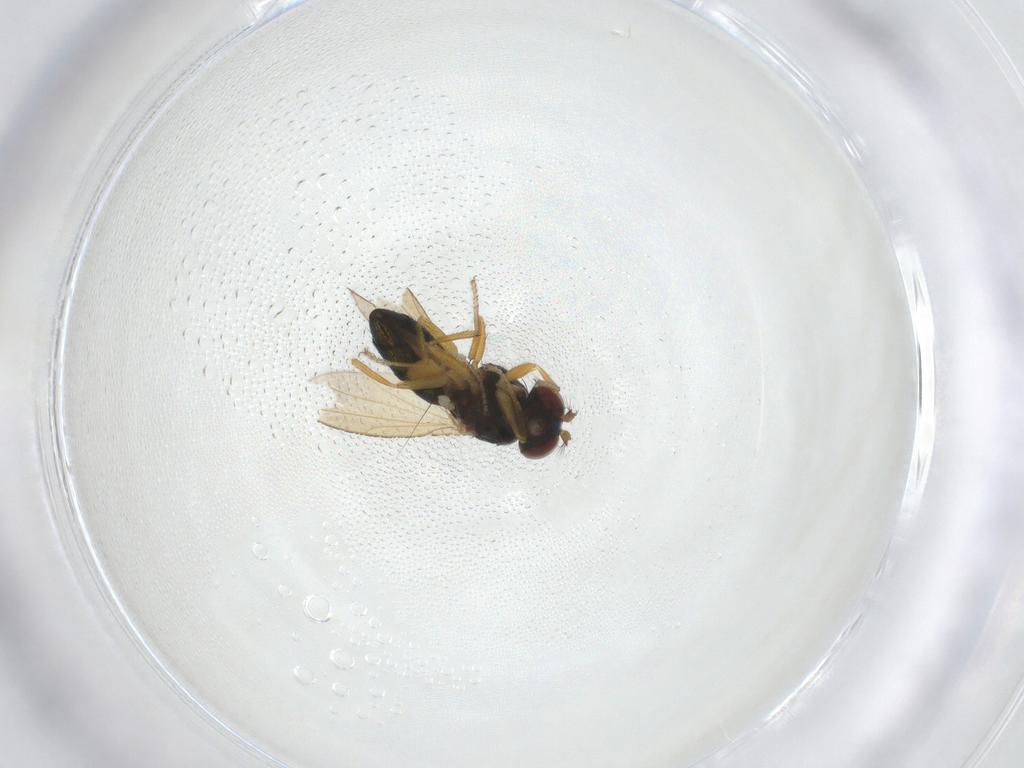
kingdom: Animalia
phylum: Arthropoda
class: Insecta
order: Diptera
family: Ephydridae
